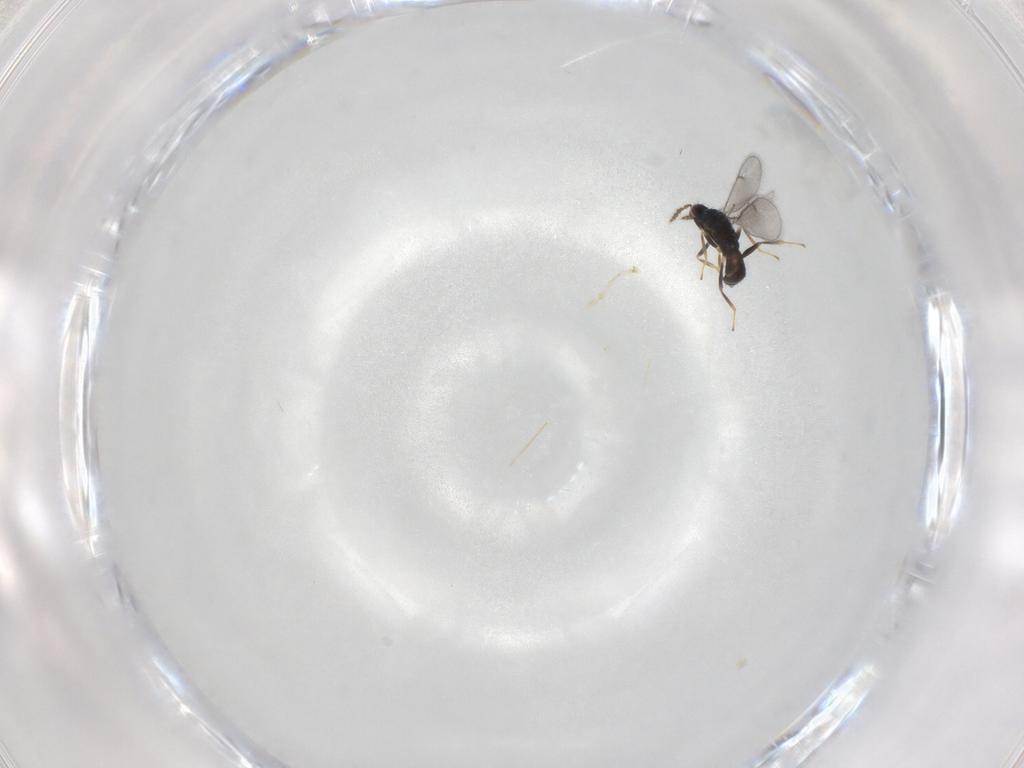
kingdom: Animalia
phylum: Arthropoda
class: Insecta
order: Hymenoptera
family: Eulophidae
